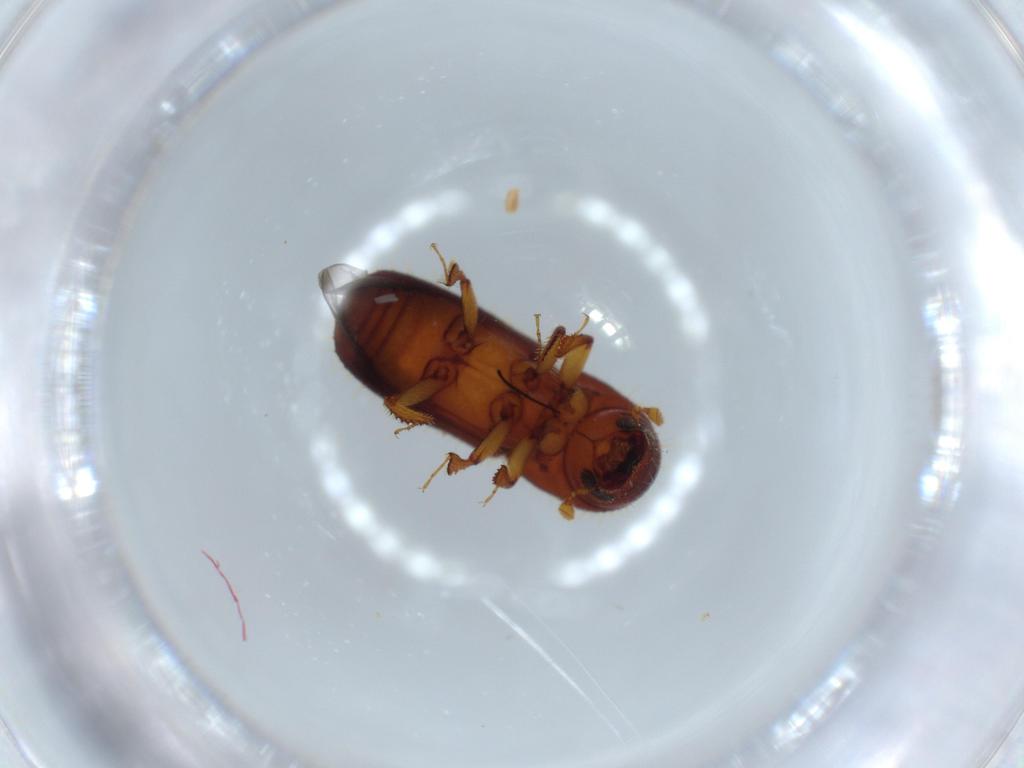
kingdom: Animalia
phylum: Arthropoda
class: Insecta
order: Coleoptera
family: Curculionidae
